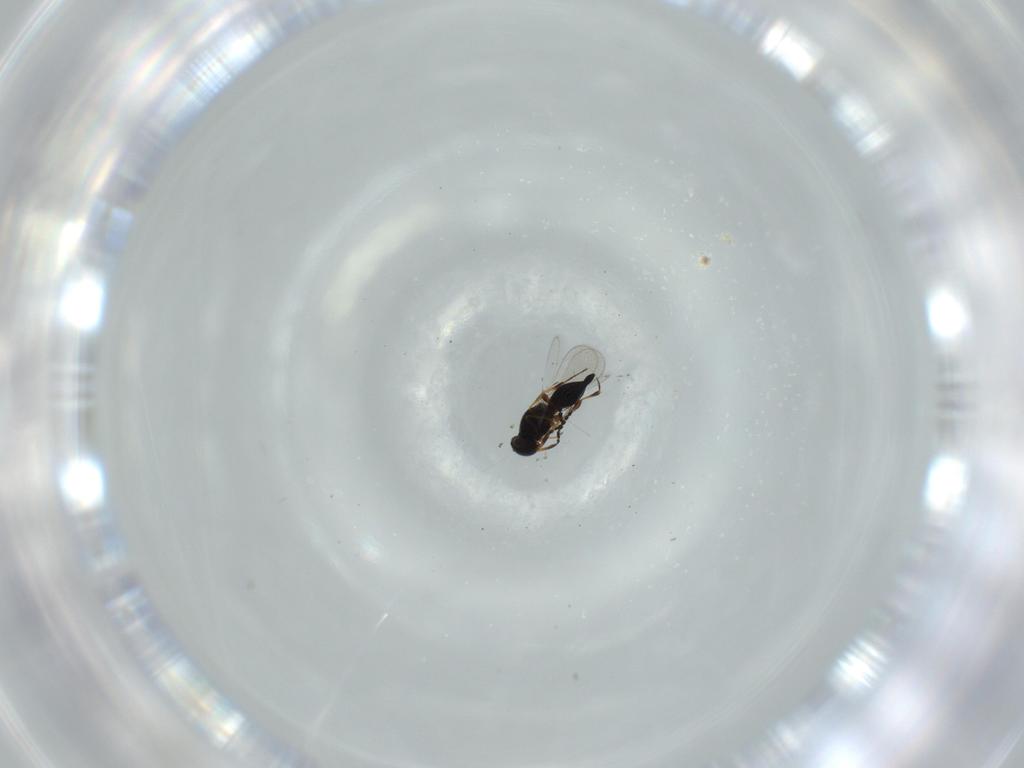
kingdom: Animalia
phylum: Arthropoda
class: Insecta
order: Hymenoptera
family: Platygastridae
